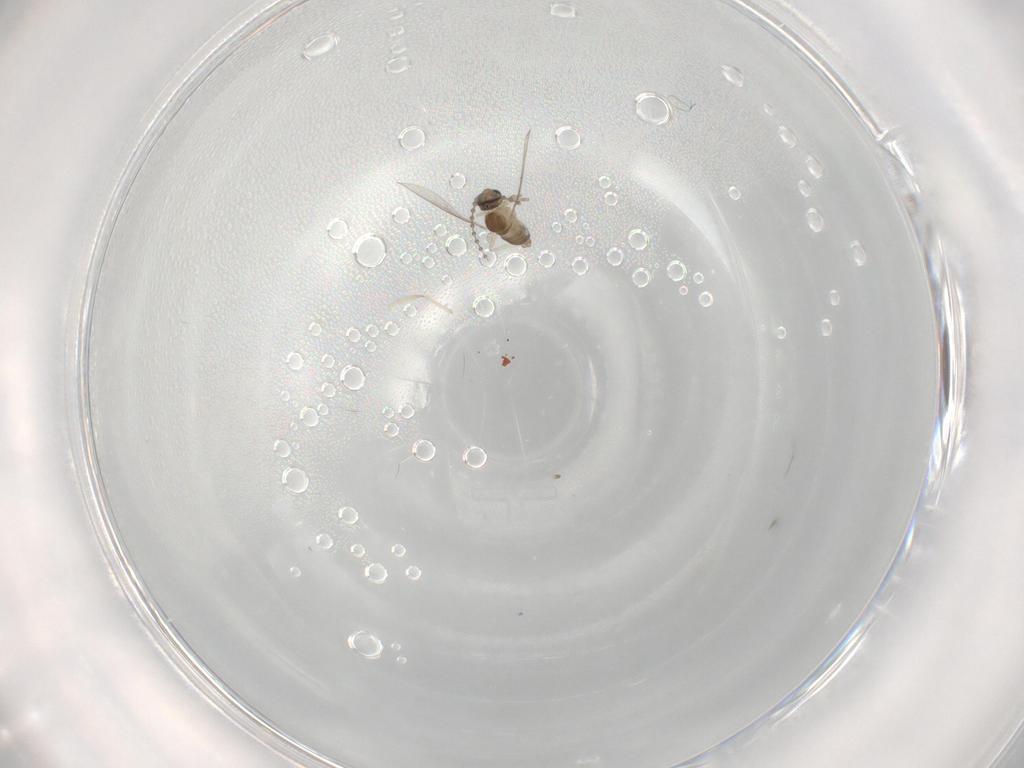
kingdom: Animalia
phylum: Arthropoda
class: Insecta
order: Diptera
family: Cecidomyiidae
